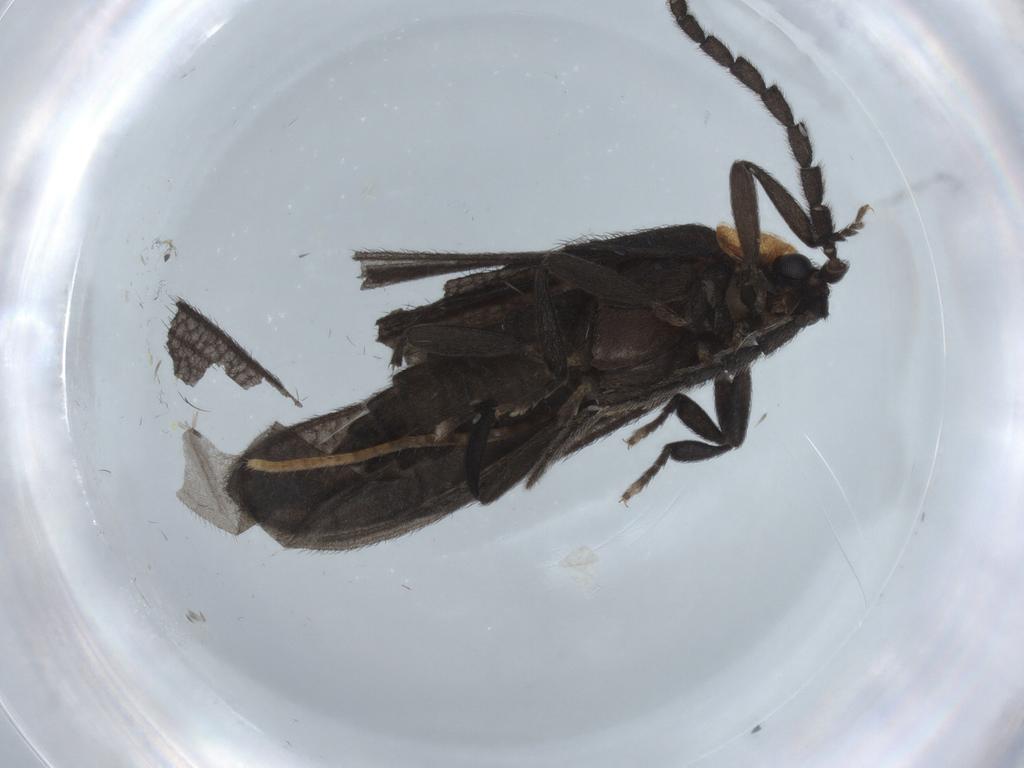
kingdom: Animalia
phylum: Arthropoda
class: Insecta
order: Coleoptera
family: Lycidae
